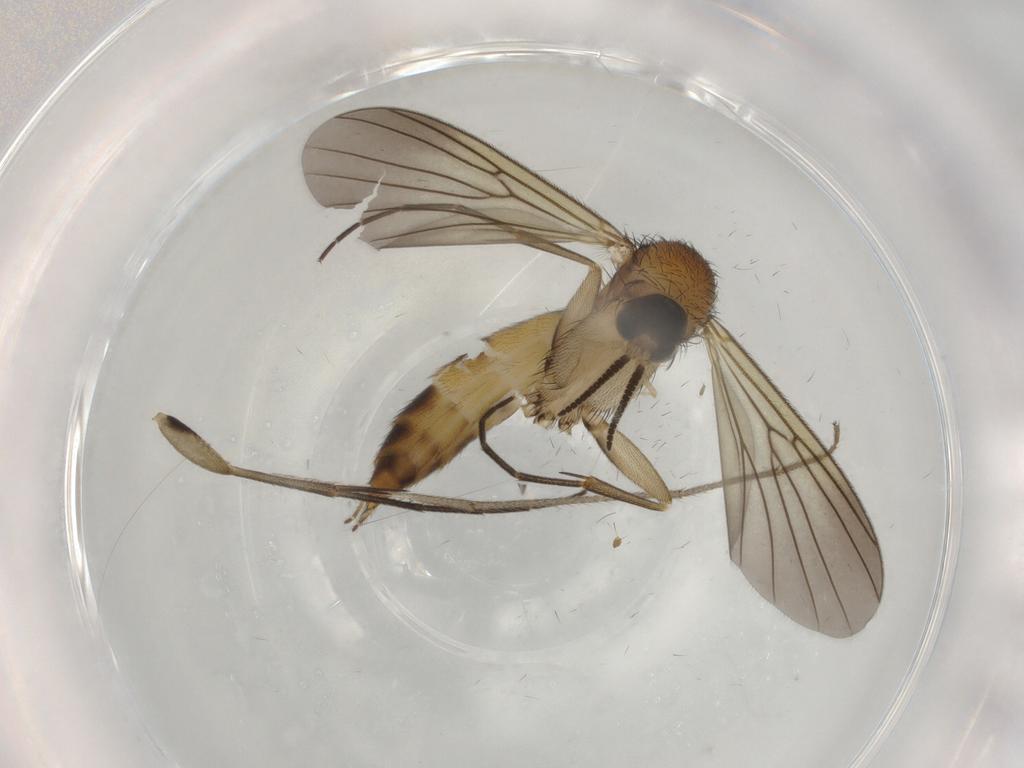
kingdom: Animalia
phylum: Arthropoda
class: Insecta
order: Diptera
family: Phoridae
